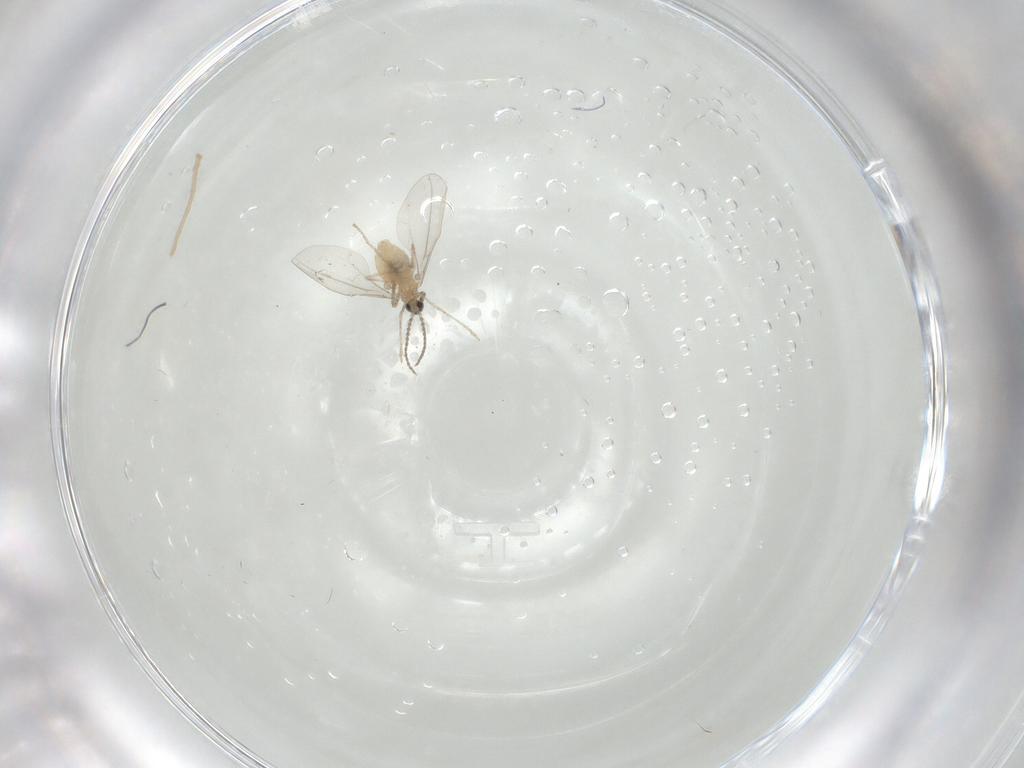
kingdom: Animalia
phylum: Arthropoda
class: Insecta
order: Diptera
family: Cecidomyiidae
